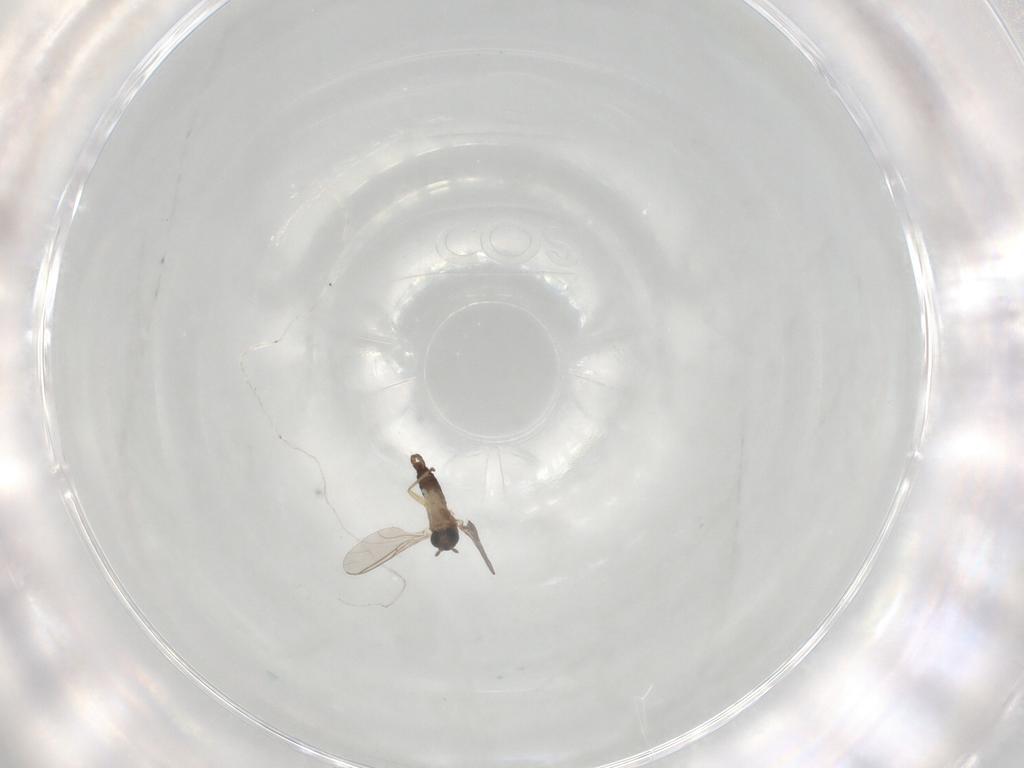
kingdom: Animalia
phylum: Arthropoda
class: Insecta
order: Diptera
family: Sciaridae
